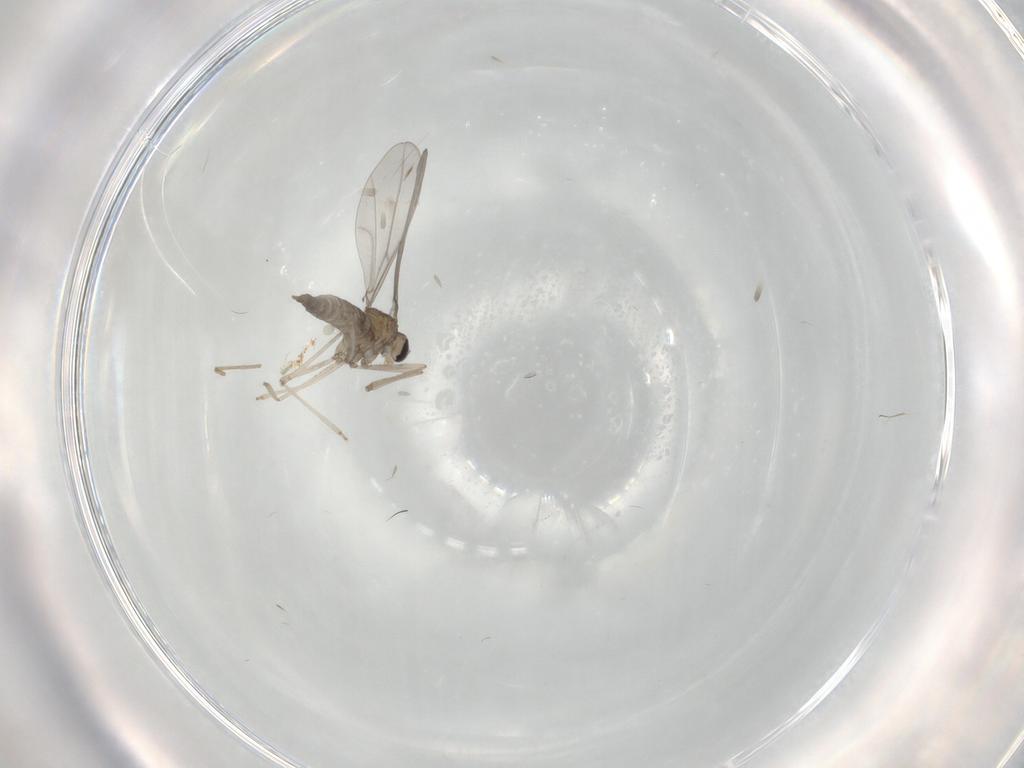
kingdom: Animalia
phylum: Arthropoda
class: Insecta
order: Diptera
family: Cecidomyiidae
